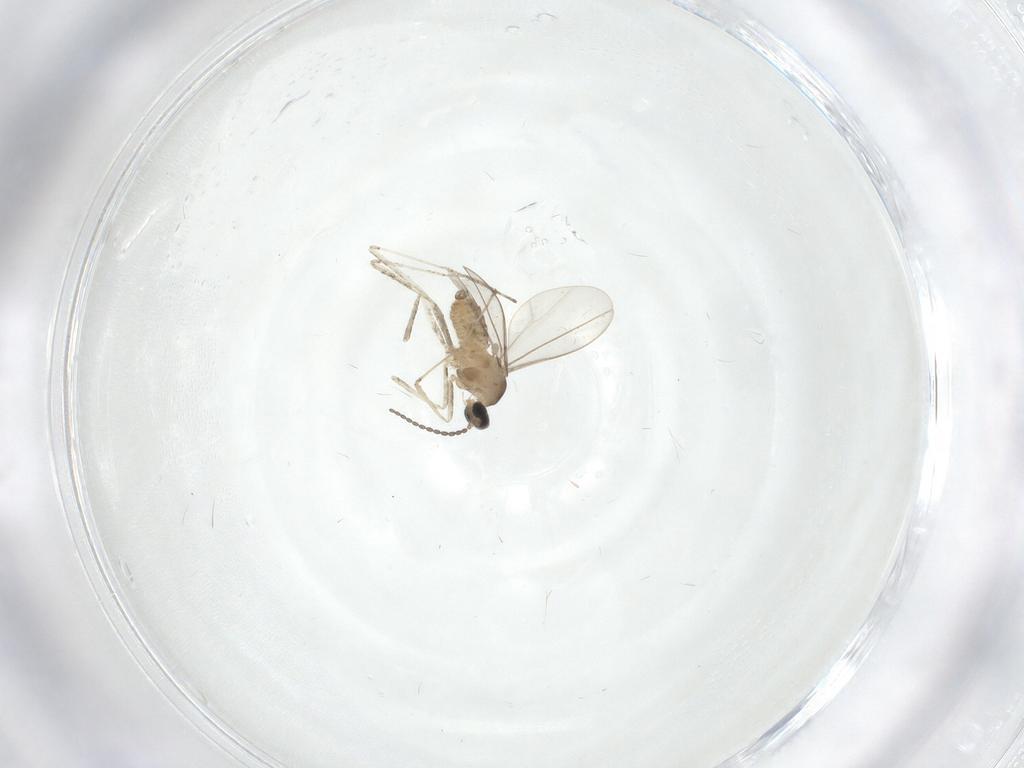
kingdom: Animalia
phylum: Arthropoda
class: Insecta
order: Diptera
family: Cecidomyiidae
